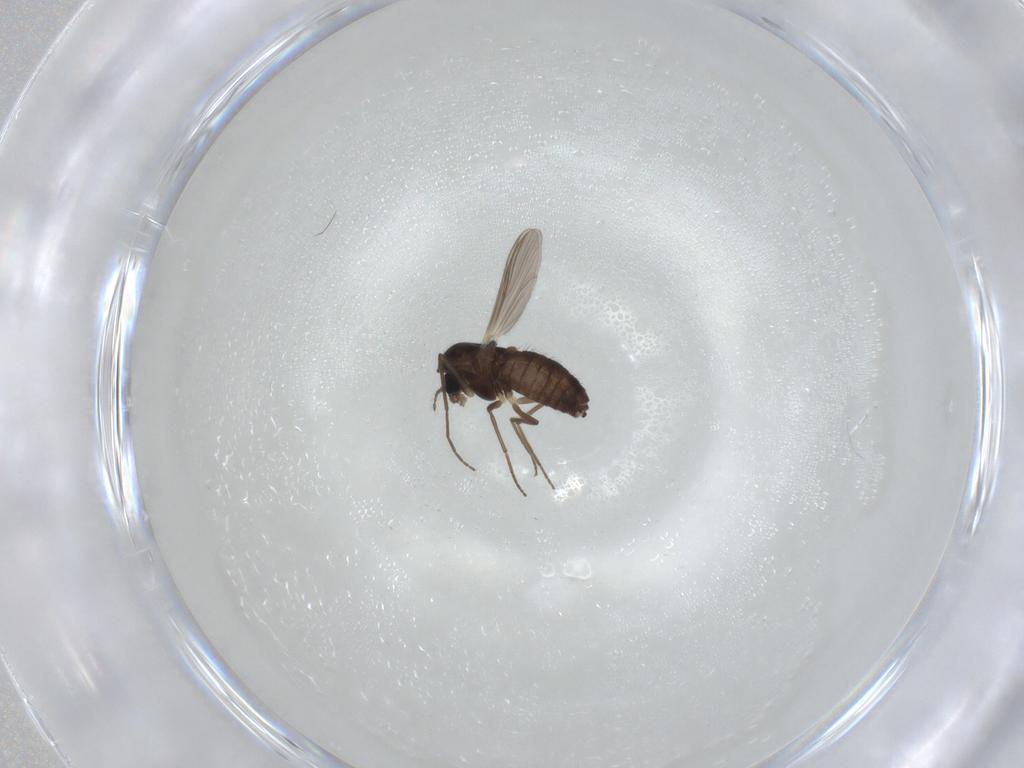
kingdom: Animalia
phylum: Arthropoda
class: Insecta
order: Diptera
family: Chironomidae
